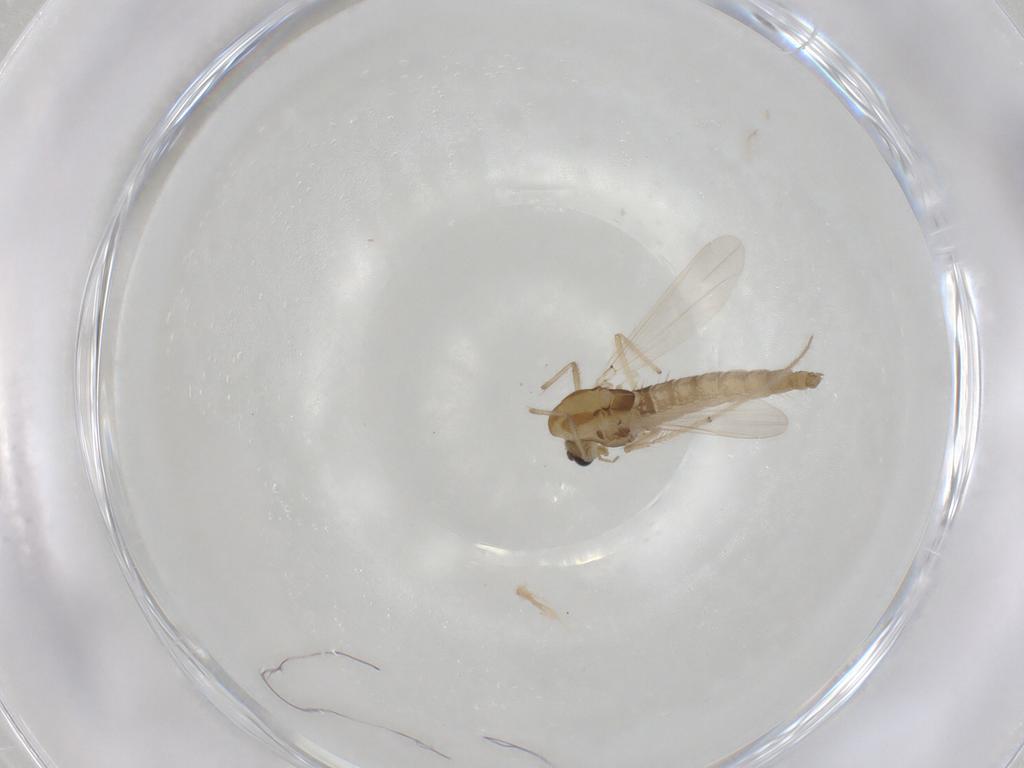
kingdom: Animalia
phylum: Arthropoda
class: Insecta
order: Diptera
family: Chironomidae
